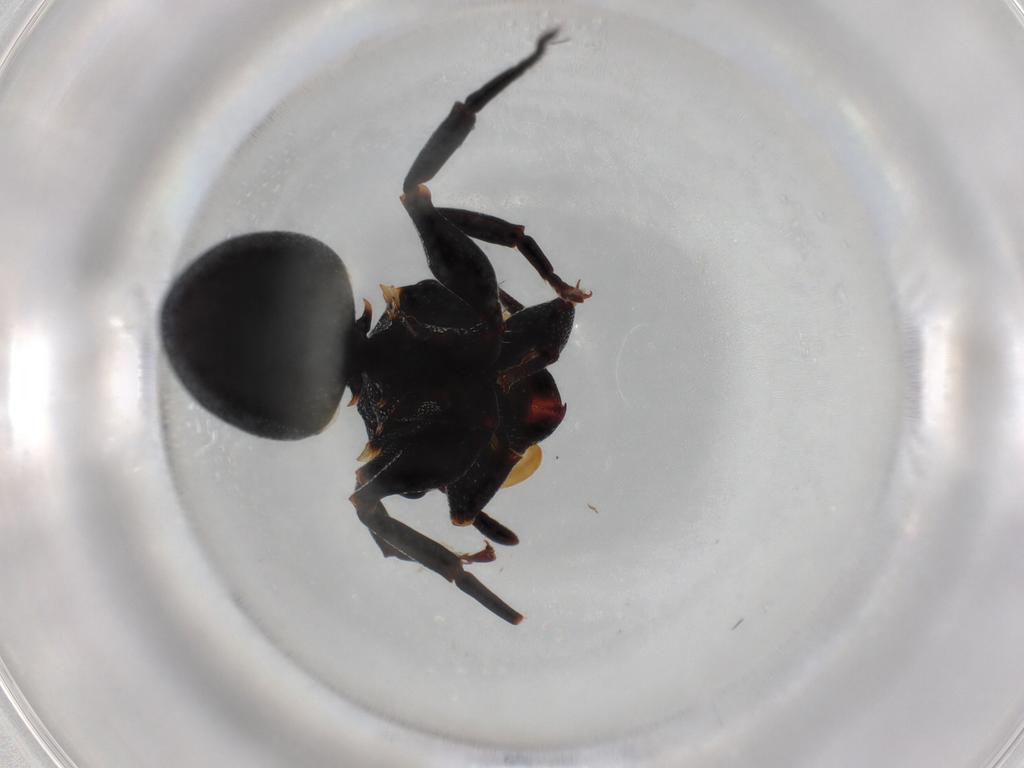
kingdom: Animalia
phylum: Arthropoda
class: Insecta
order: Hymenoptera
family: Formicidae
